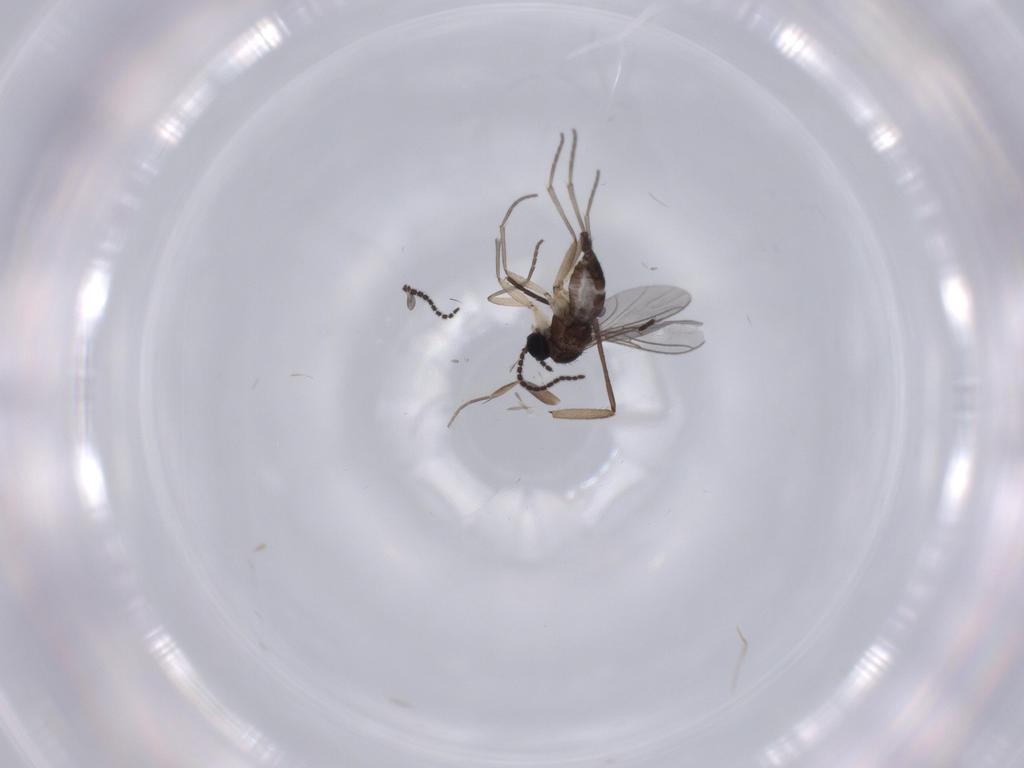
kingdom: Animalia
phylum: Arthropoda
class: Insecta
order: Diptera
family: Sciaridae
